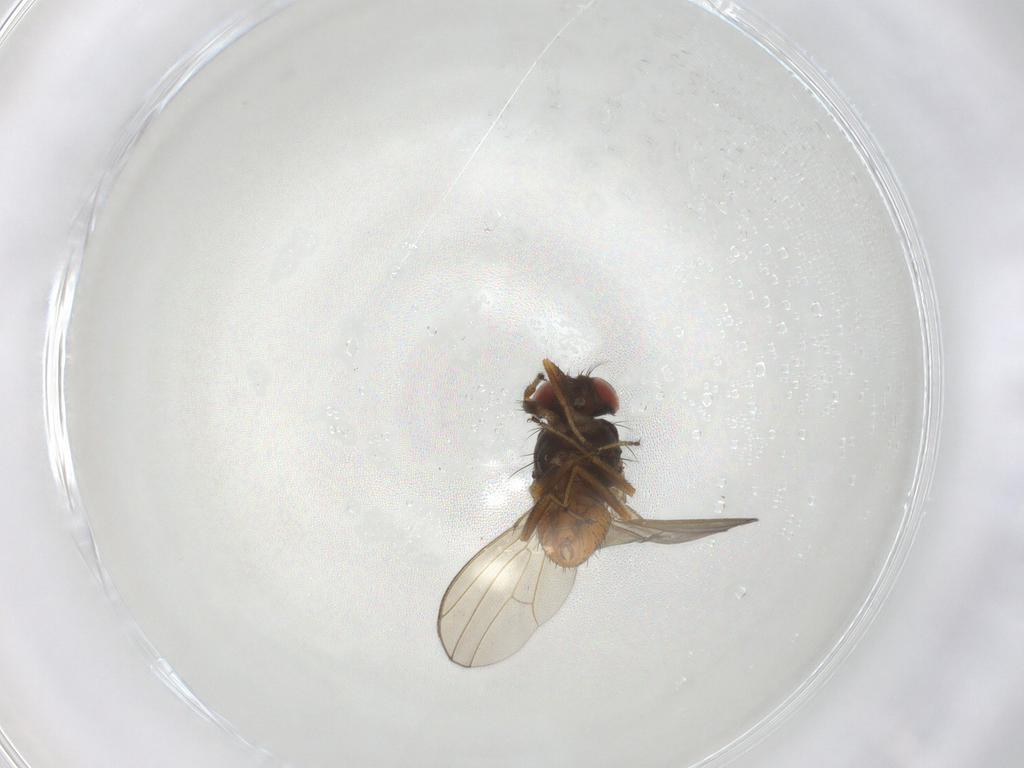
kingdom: Animalia
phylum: Arthropoda
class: Insecta
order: Diptera
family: Drosophilidae
